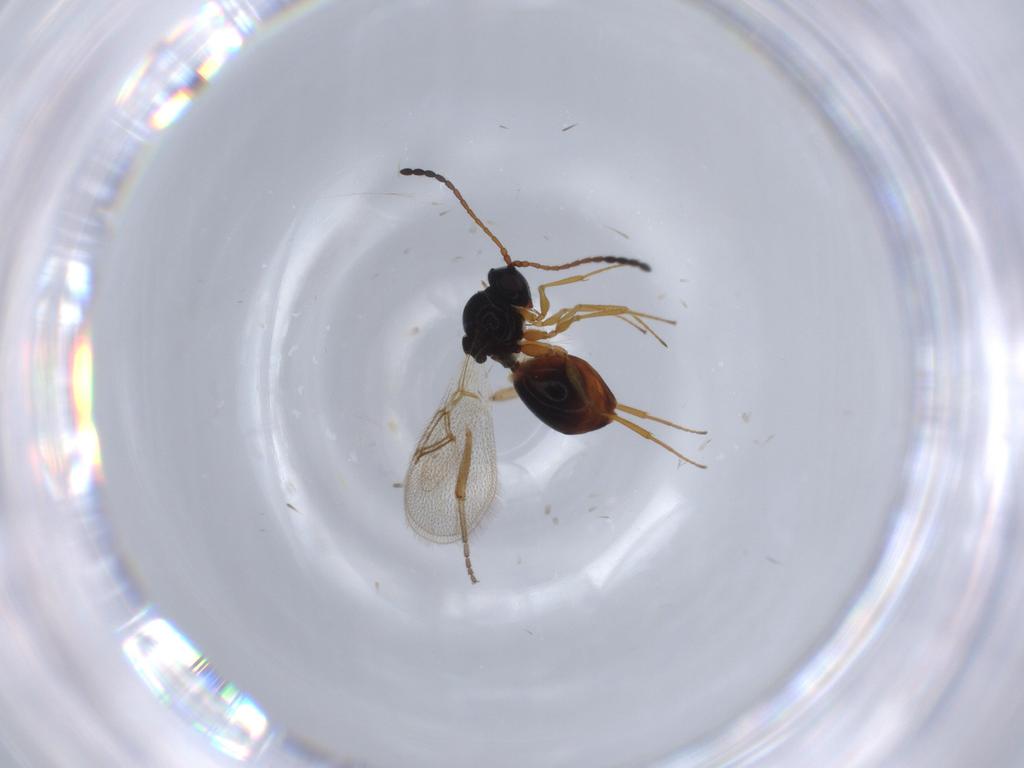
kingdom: Animalia
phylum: Arthropoda
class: Insecta
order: Hymenoptera
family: Figitidae
